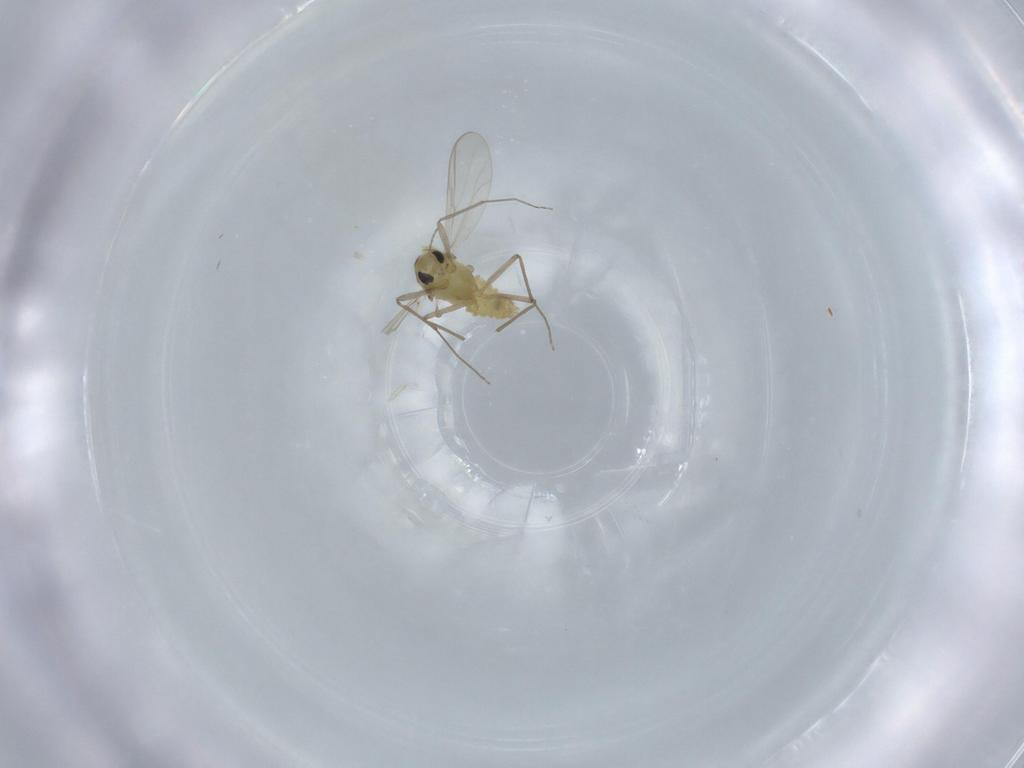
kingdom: Animalia
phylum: Arthropoda
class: Insecta
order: Diptera
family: Chironomidae
